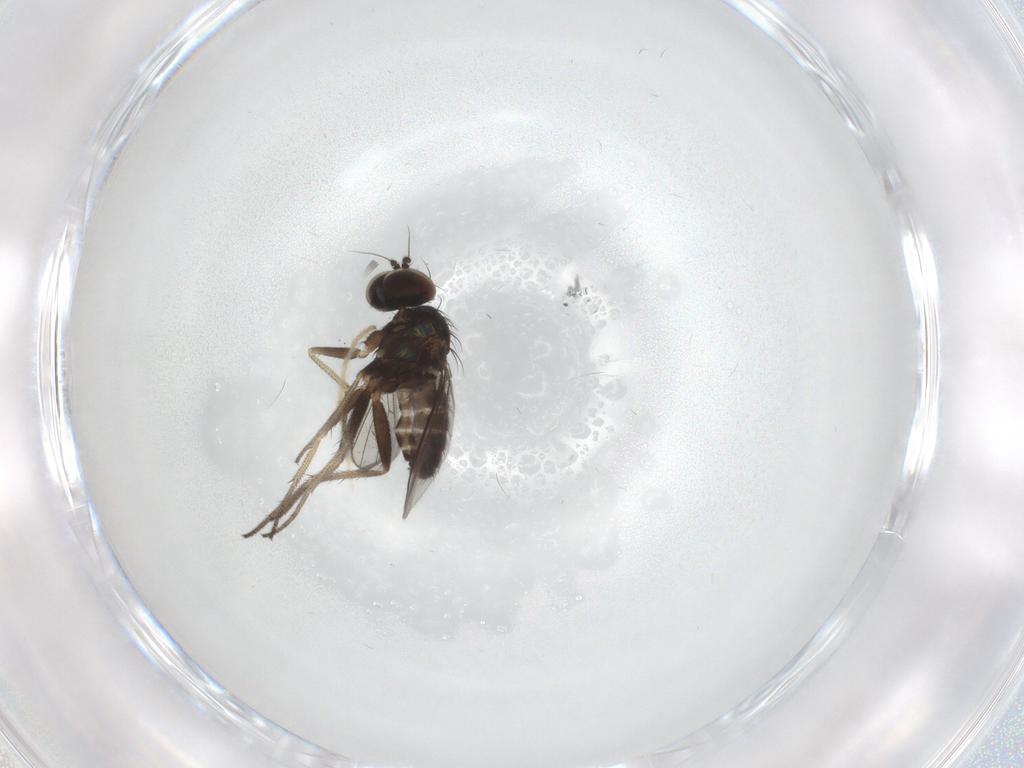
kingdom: Animalia
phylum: Arthropoda
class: Insecta
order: Diptera
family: Chironomidae
